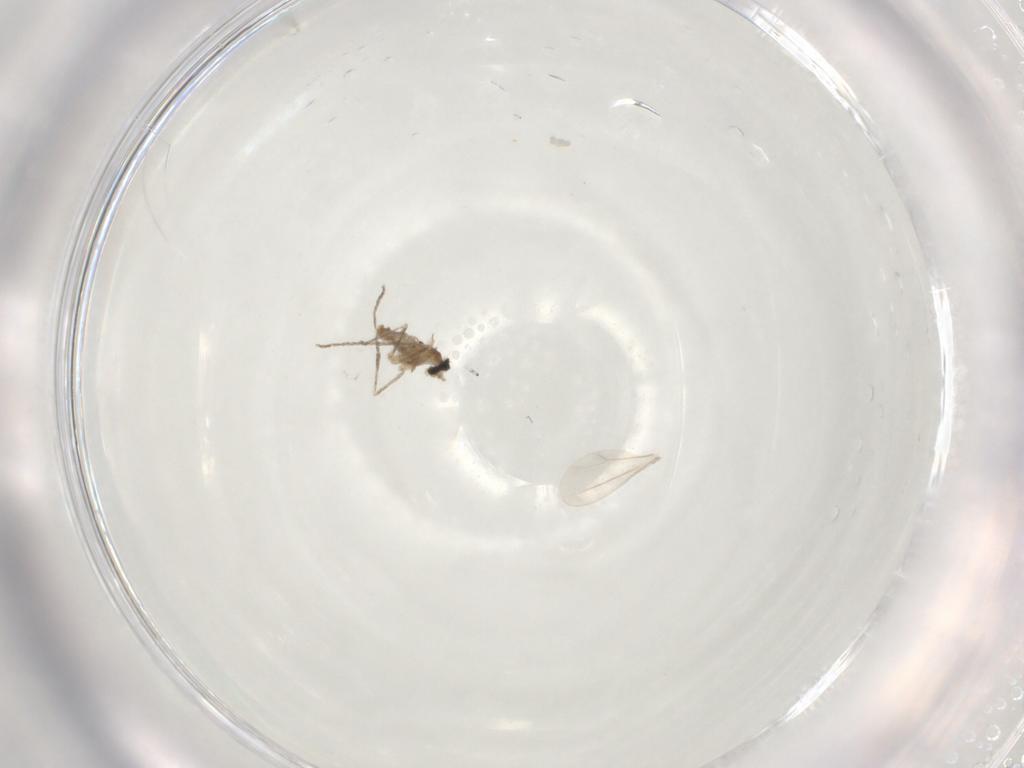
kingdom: Animalia
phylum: Arthropoda
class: Insecta
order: Diptera
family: Cecidomyiidae
